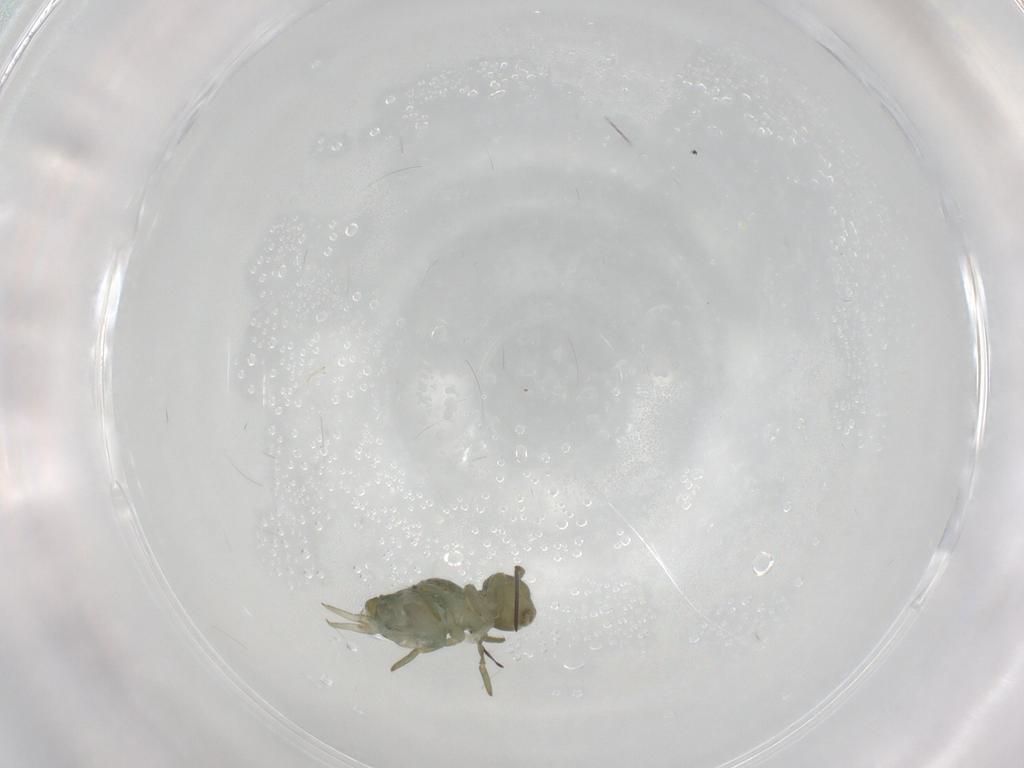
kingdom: Animalia
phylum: Arthropoda
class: Collembola
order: Symphypleona
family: Sminthuridae
